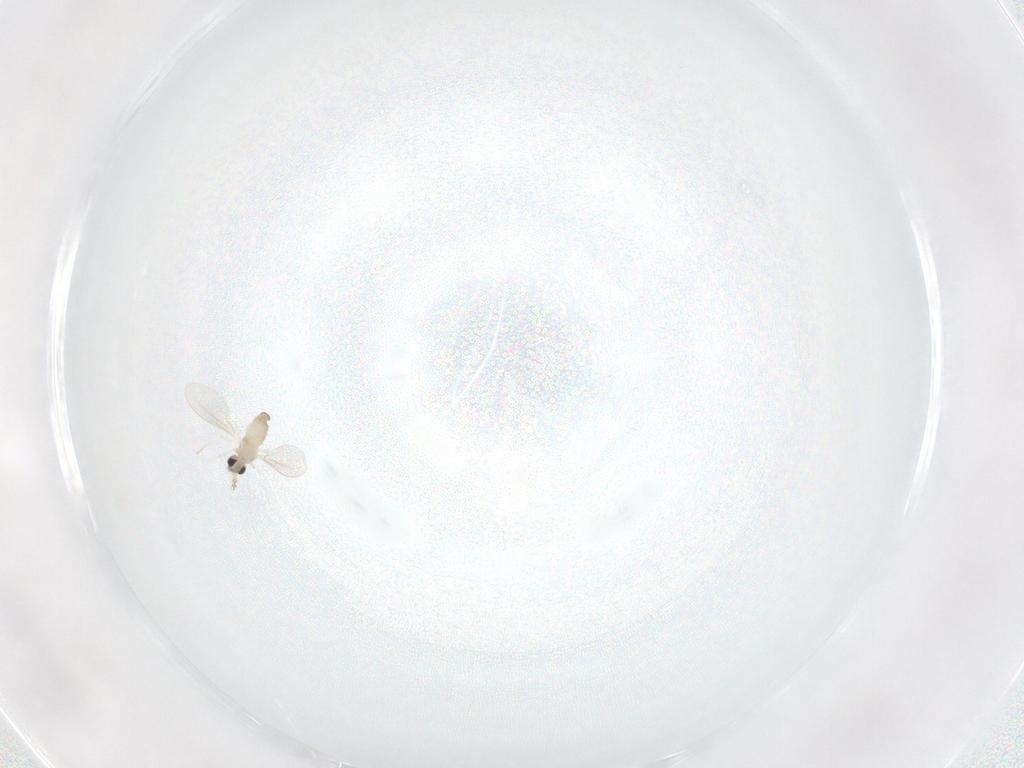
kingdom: Animalia
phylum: Arthropoda
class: Insecta
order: Diptera
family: Cecidomyiidae
